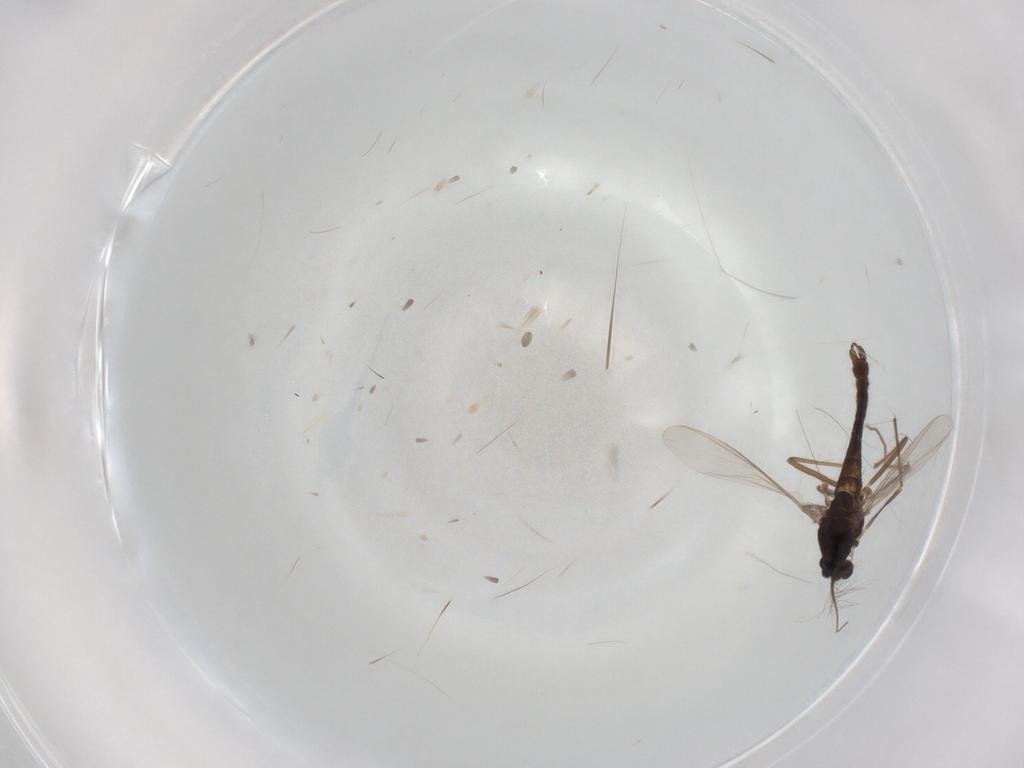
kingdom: Animalia
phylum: Arthropoda
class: Insecta
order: Diptera
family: Chironomidae
